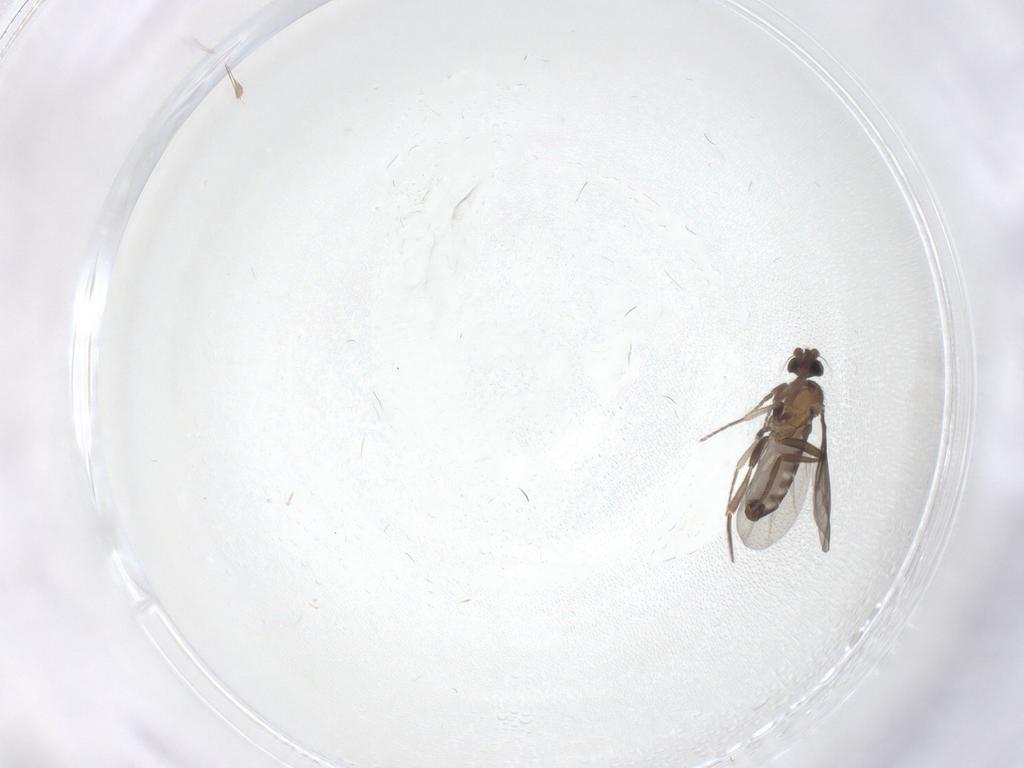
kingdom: Animalia
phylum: Arthropoda
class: Insecta
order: Diptera
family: Phoridae
